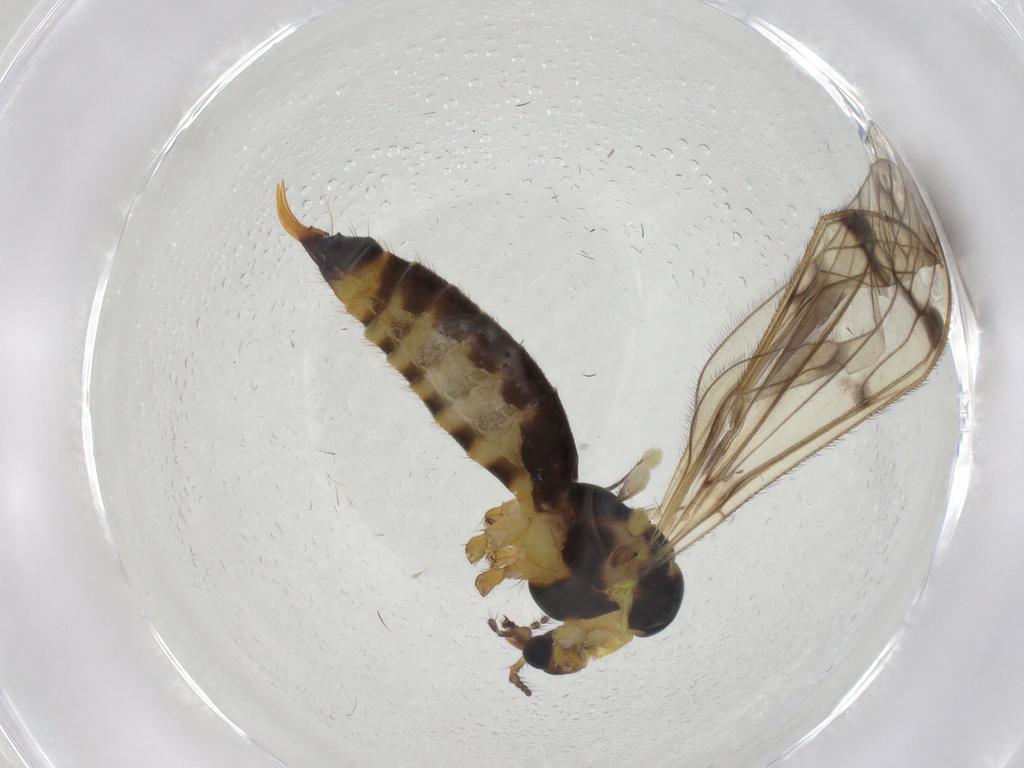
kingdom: Animalia
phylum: Arthropoda
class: Insecta
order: Diptera
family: Limoniidae
